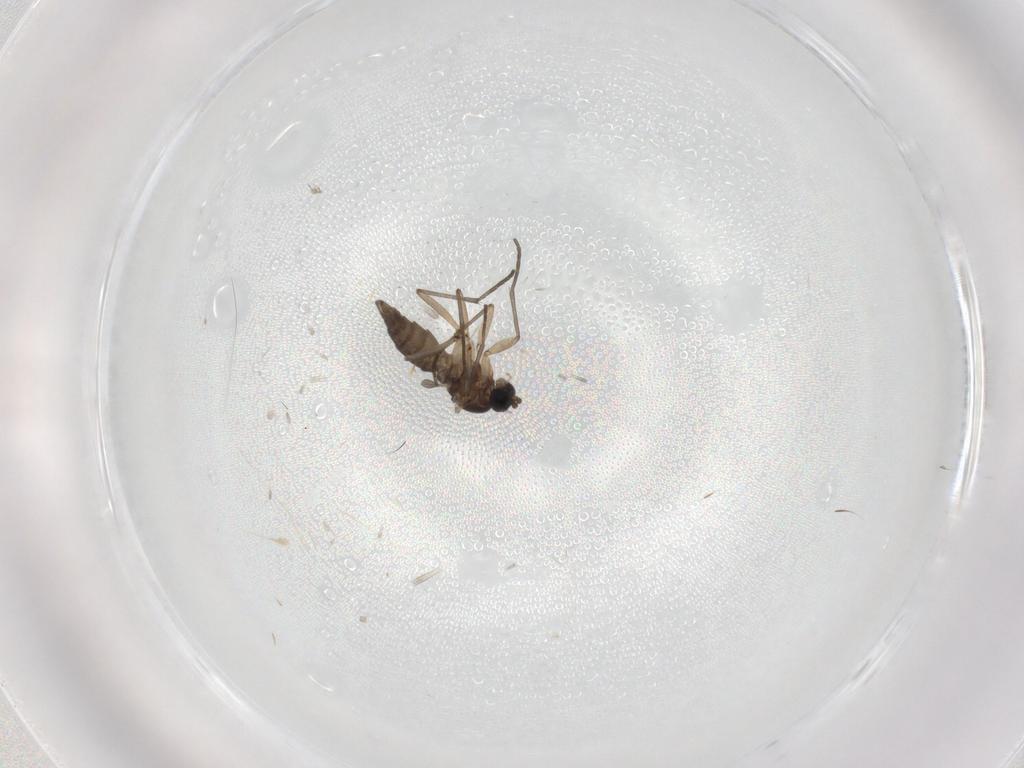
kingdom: Animalia
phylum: Arthropoda
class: Insecta
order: Diptera
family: Sciaridae
